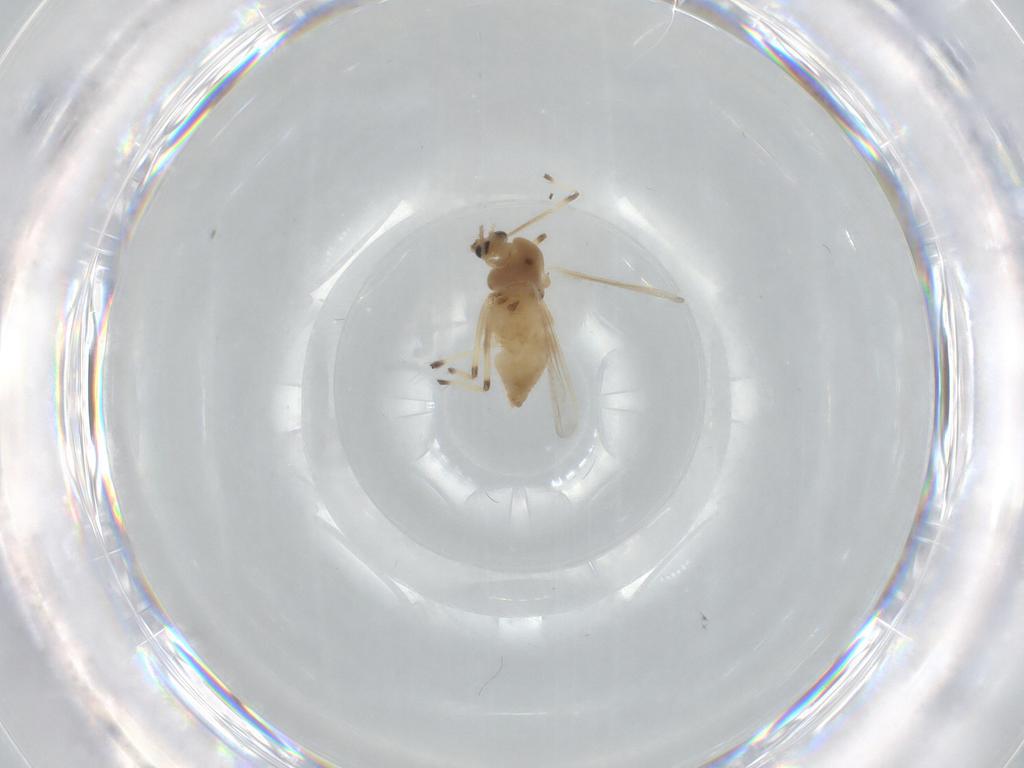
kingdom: Animalia
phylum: Arthropoda
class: Insecta
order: Diptera
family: Chironomidae
